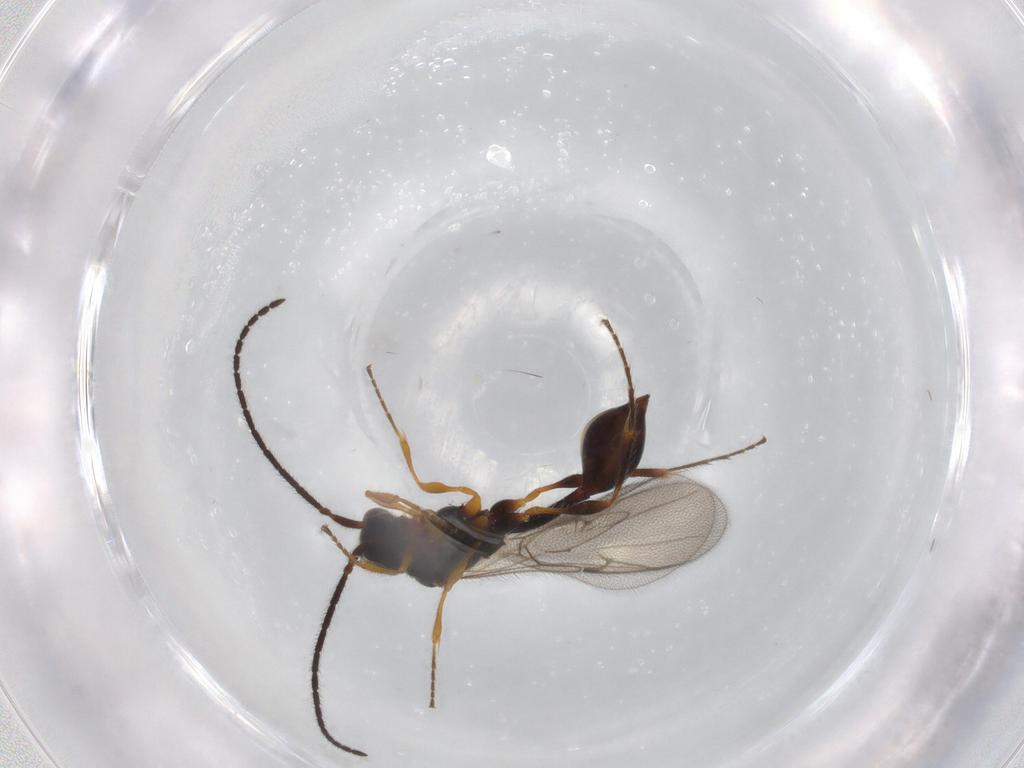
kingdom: Animalia
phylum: Arthropoda
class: Insecta
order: Hymenoptera
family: Diapriidae
